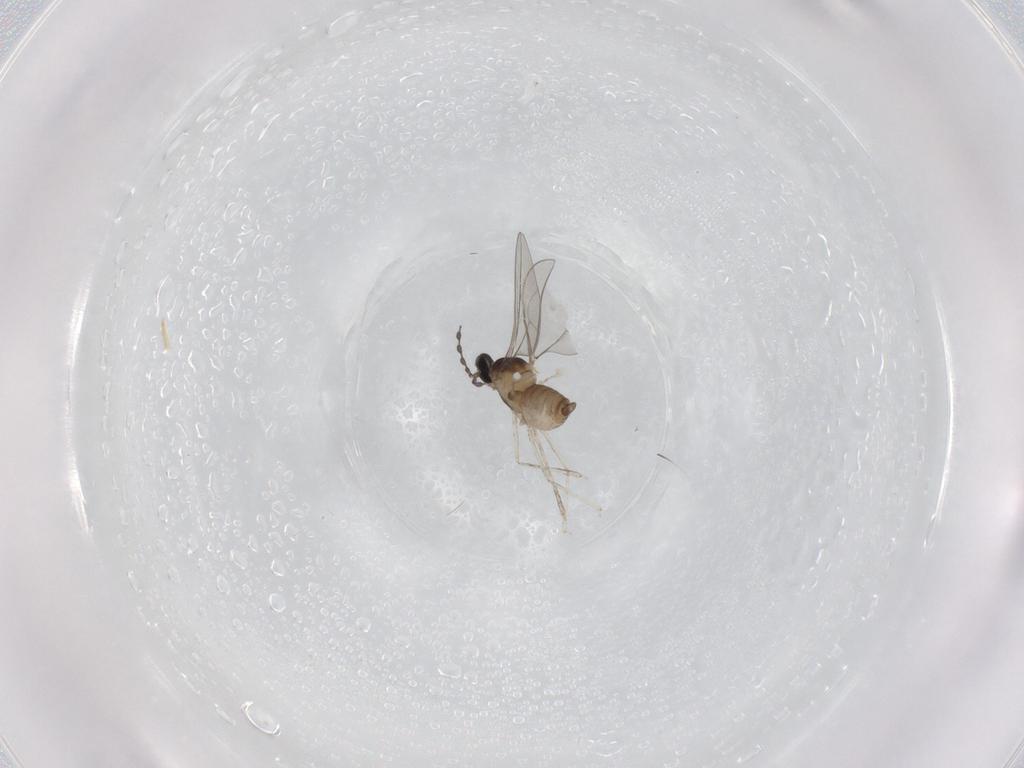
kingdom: Animalia
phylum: Arthropoda
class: Insecta
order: Diptera
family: Cecidomyiidae
